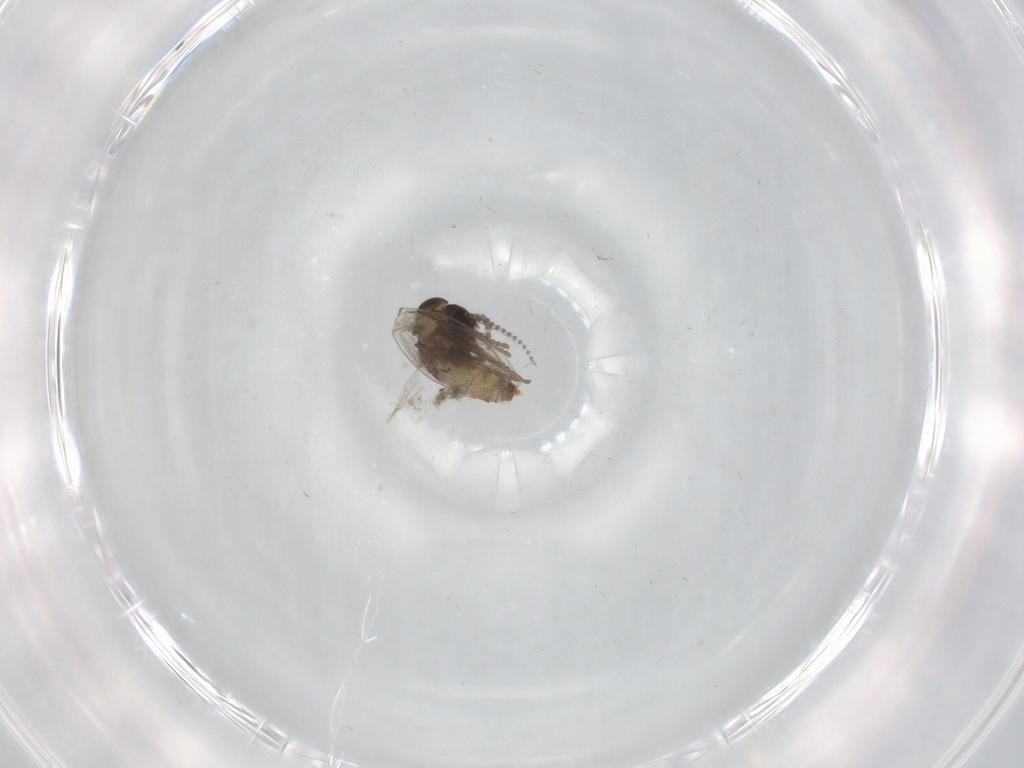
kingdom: Animalia
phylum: Arthropoda
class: Insecta
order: Diptera
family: Psychodidae
